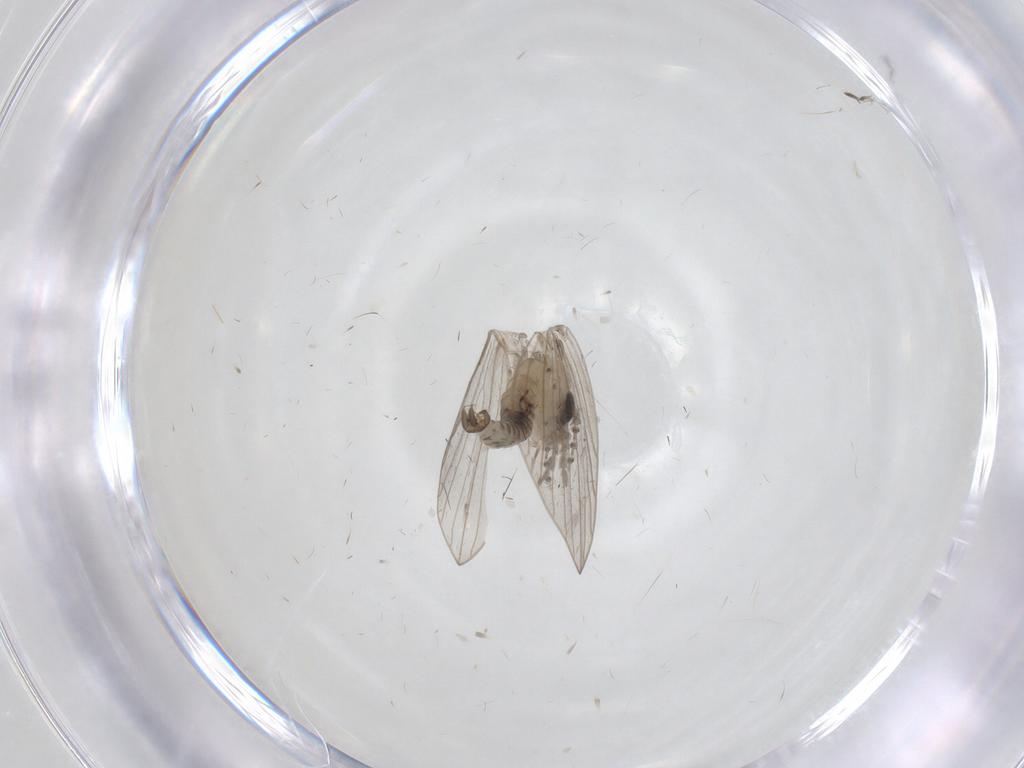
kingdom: Animalia
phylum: Arthropoda
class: Insecta
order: Diptera
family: Psychodidae
